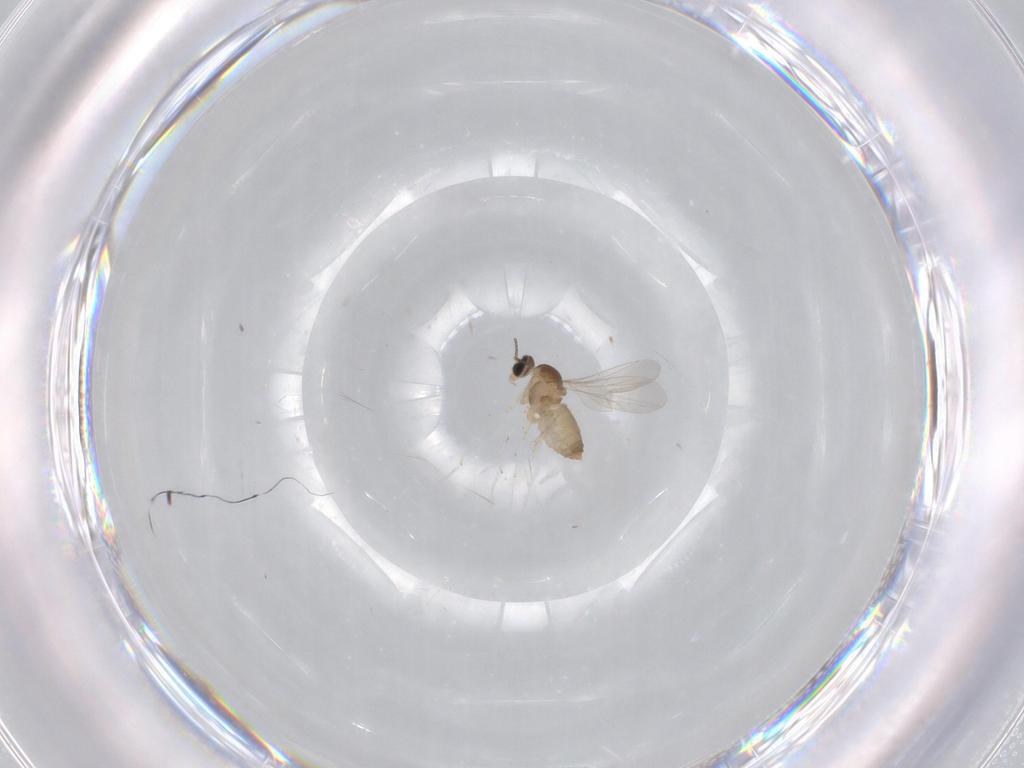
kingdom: Animalia
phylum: Arthropoda
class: Insecta
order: Diptera
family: Cecidomyiidae
